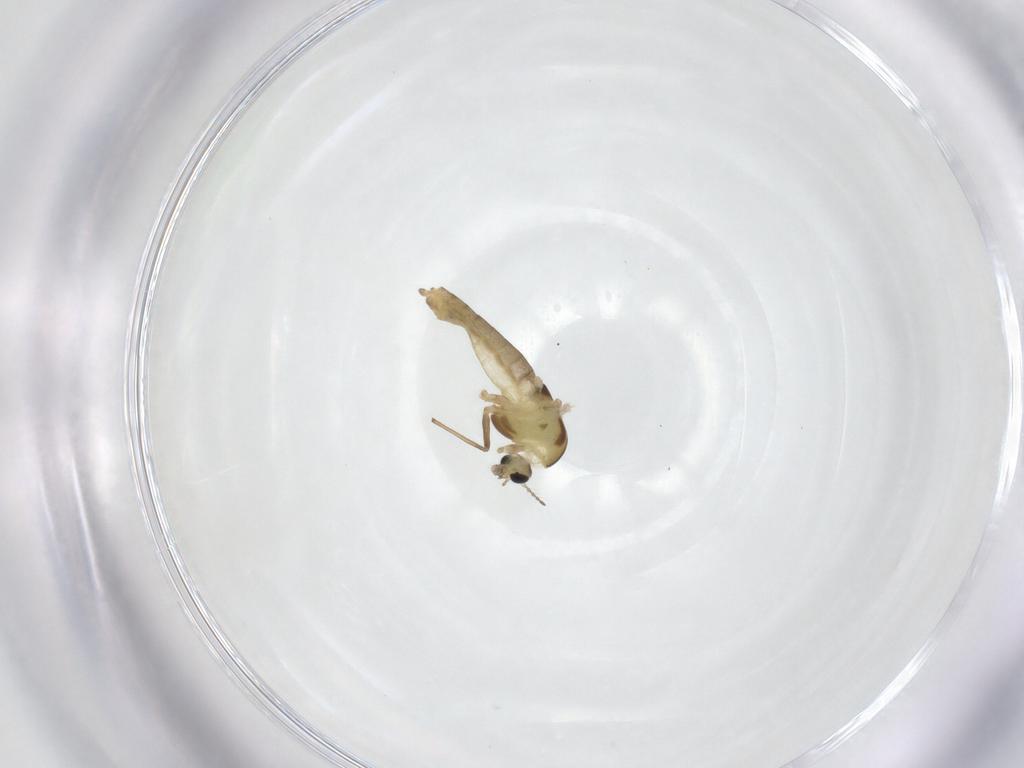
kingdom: Animalia
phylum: Arthropoda
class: Insecta
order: Diptera
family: Chironomidae
